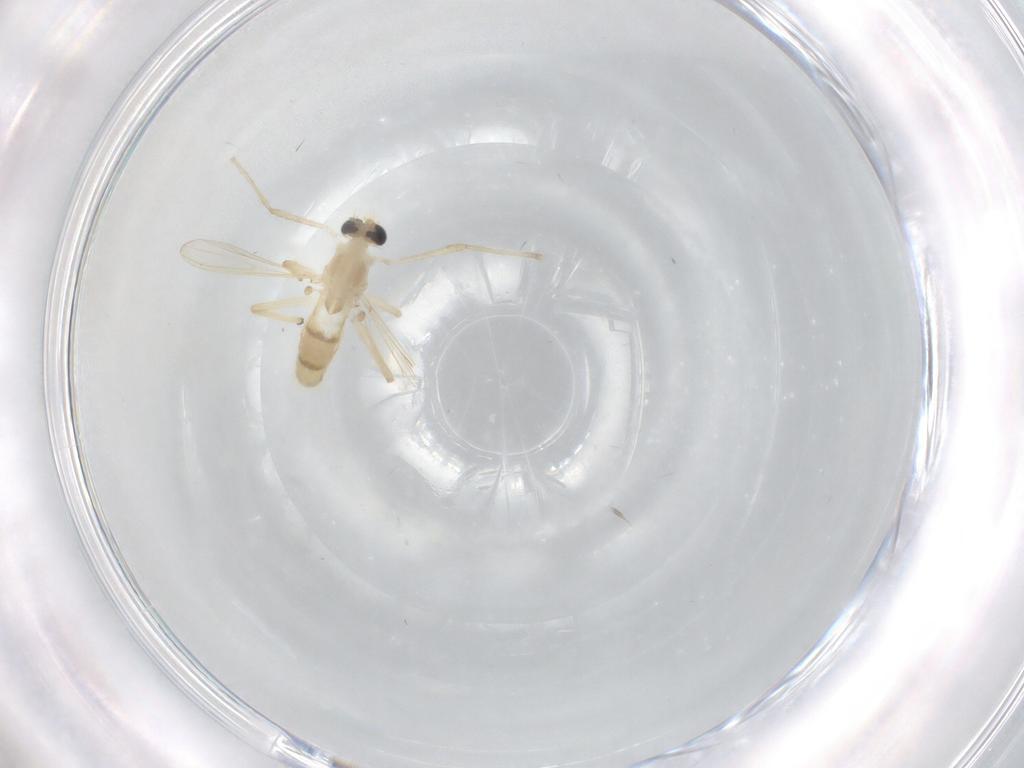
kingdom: Animalia
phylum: Arthropoda
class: Insecta
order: Diptera
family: Chironomidae
